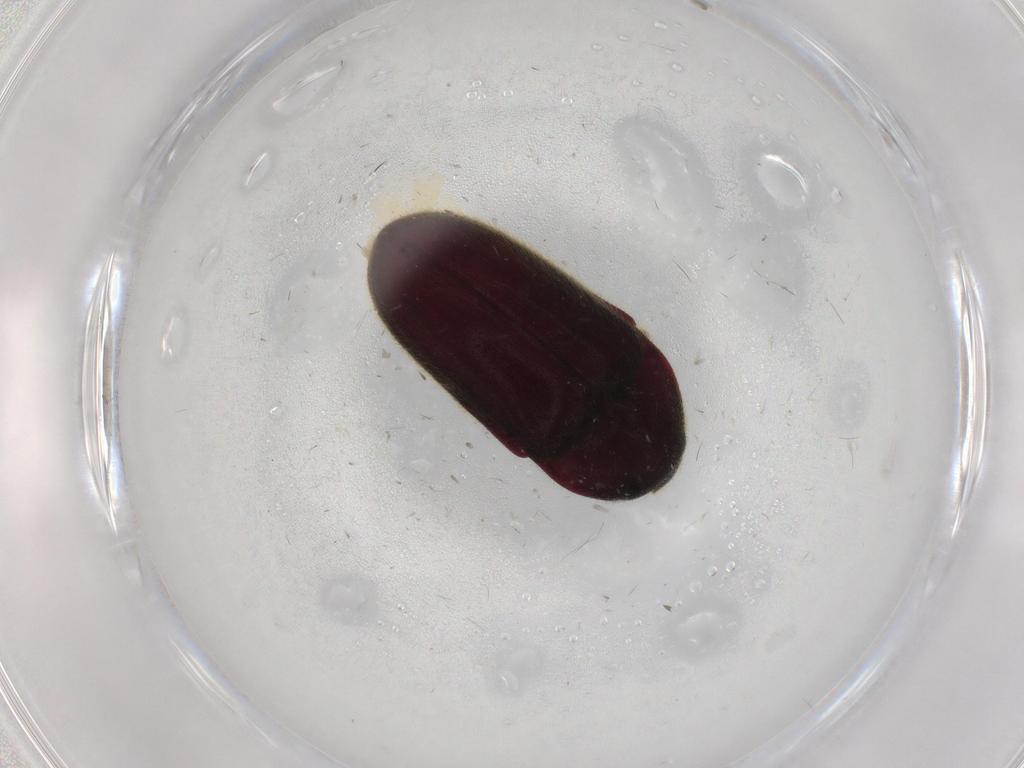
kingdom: Animalia
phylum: Arthropoda
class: Insecta
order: Coleoptera
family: Throscidae
